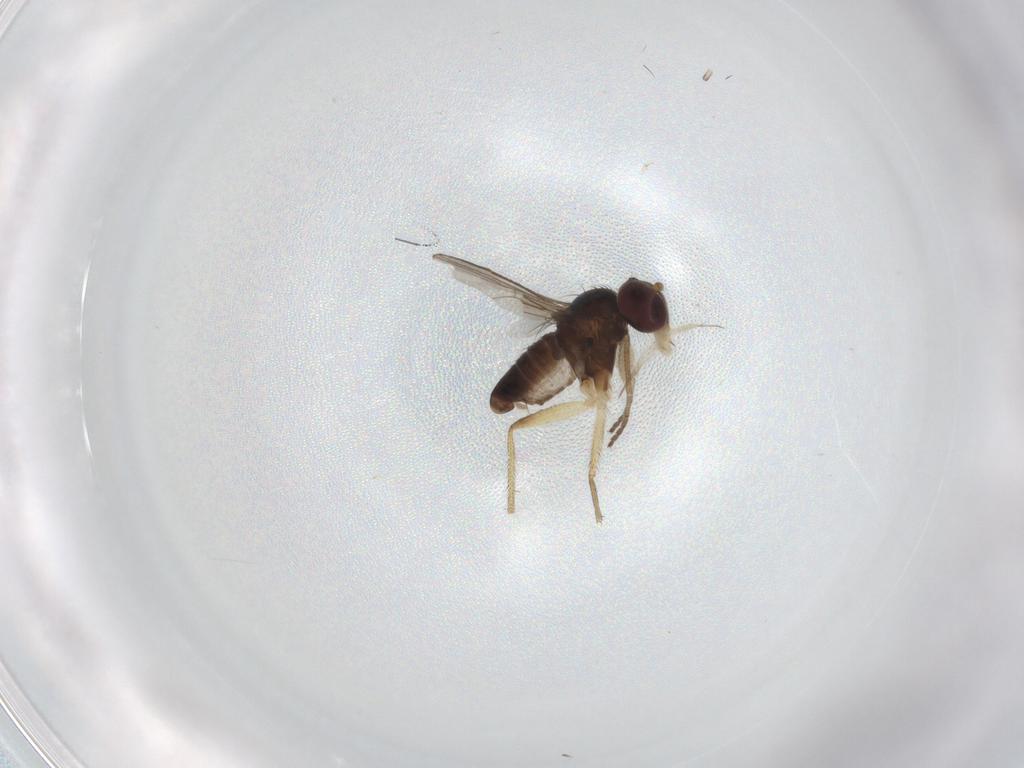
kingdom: Animalia
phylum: Arthropoda
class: Insecta
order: Diptera
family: Dolichopodidae
